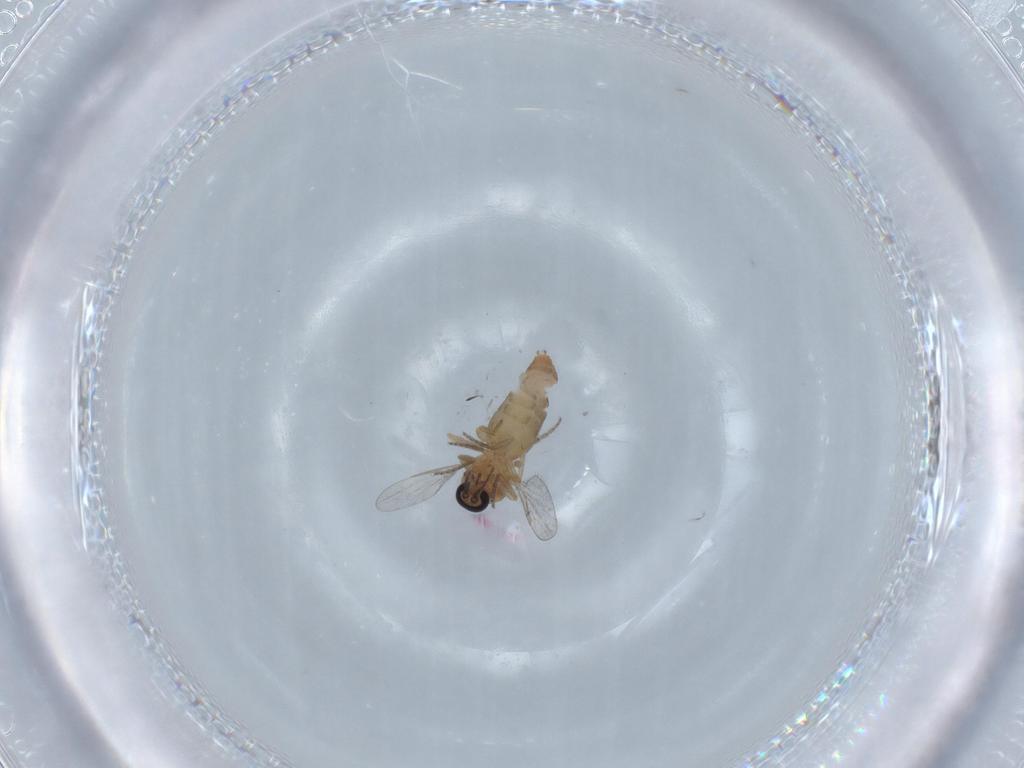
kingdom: Animalia
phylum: Arthropoda
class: Insecta
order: Diptera
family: Ceratopogonidae
